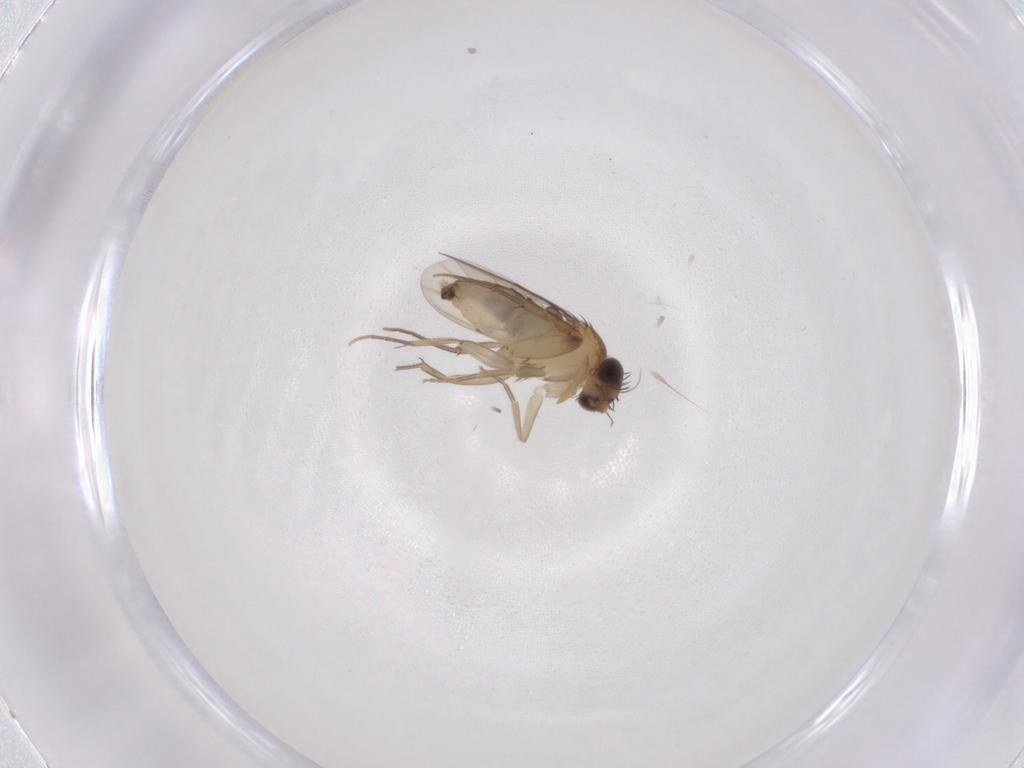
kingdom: Animalia
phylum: Arthropoda
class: Insecta
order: Diptera
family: Phoridae
